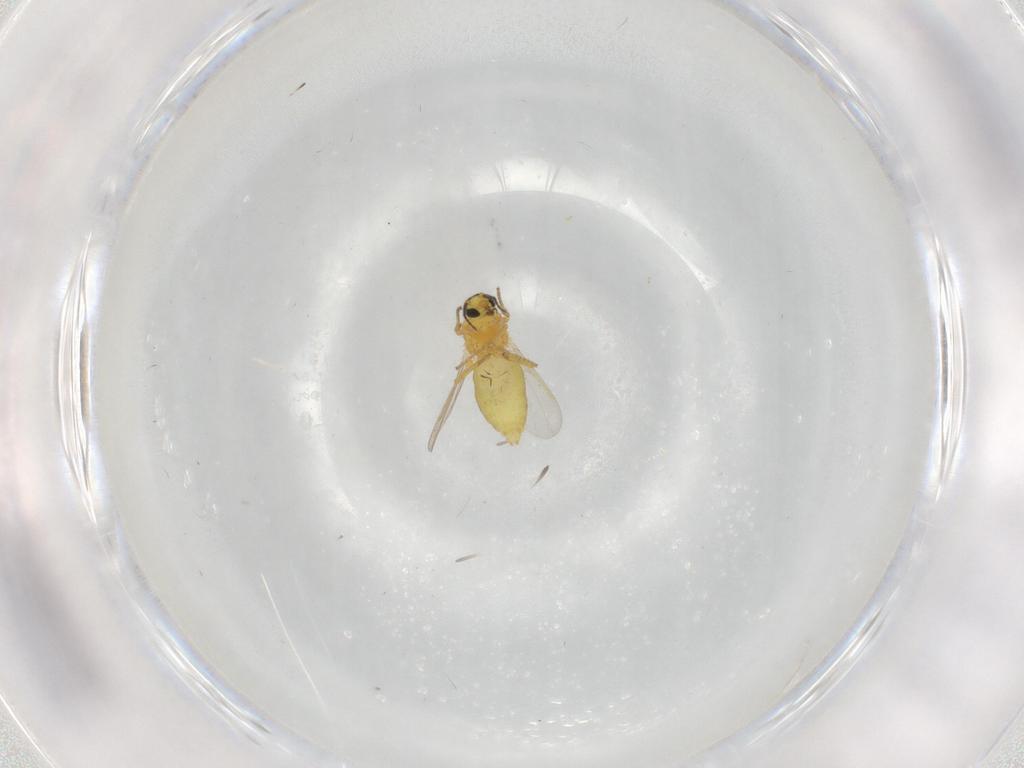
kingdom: Animalia
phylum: Arthropoda
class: Insecta
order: Diptera
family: Ceratopogonidae
